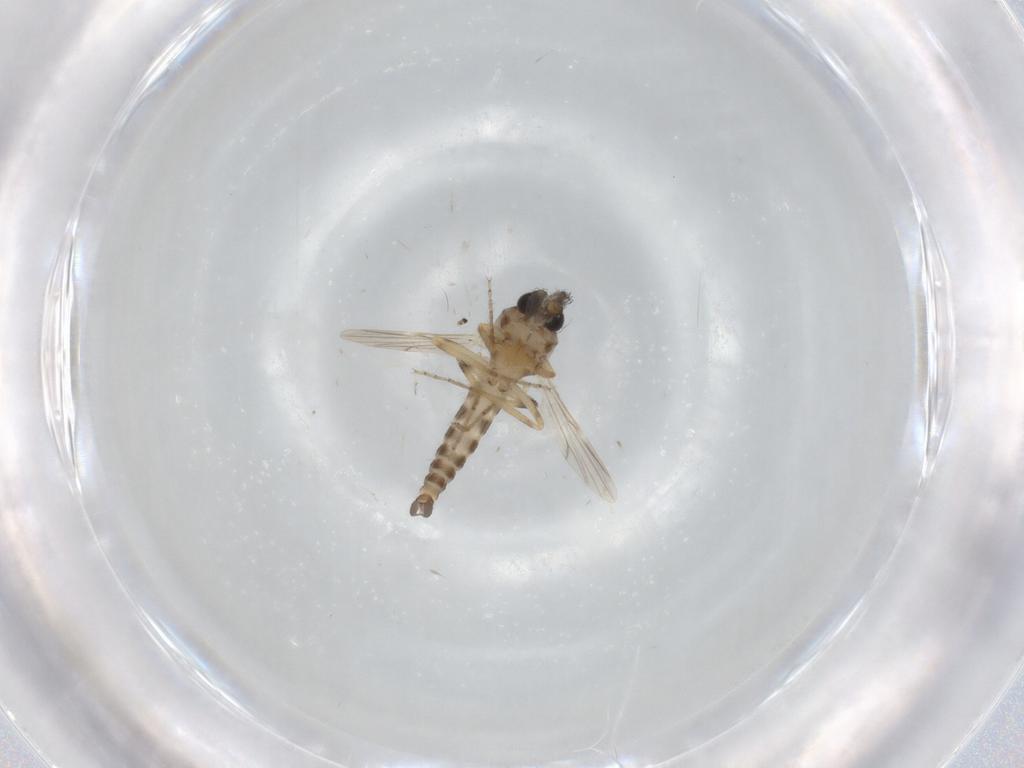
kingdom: Animalia
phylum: Arthropoda
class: Insecta
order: Diptera
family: Ceratopogonidae
